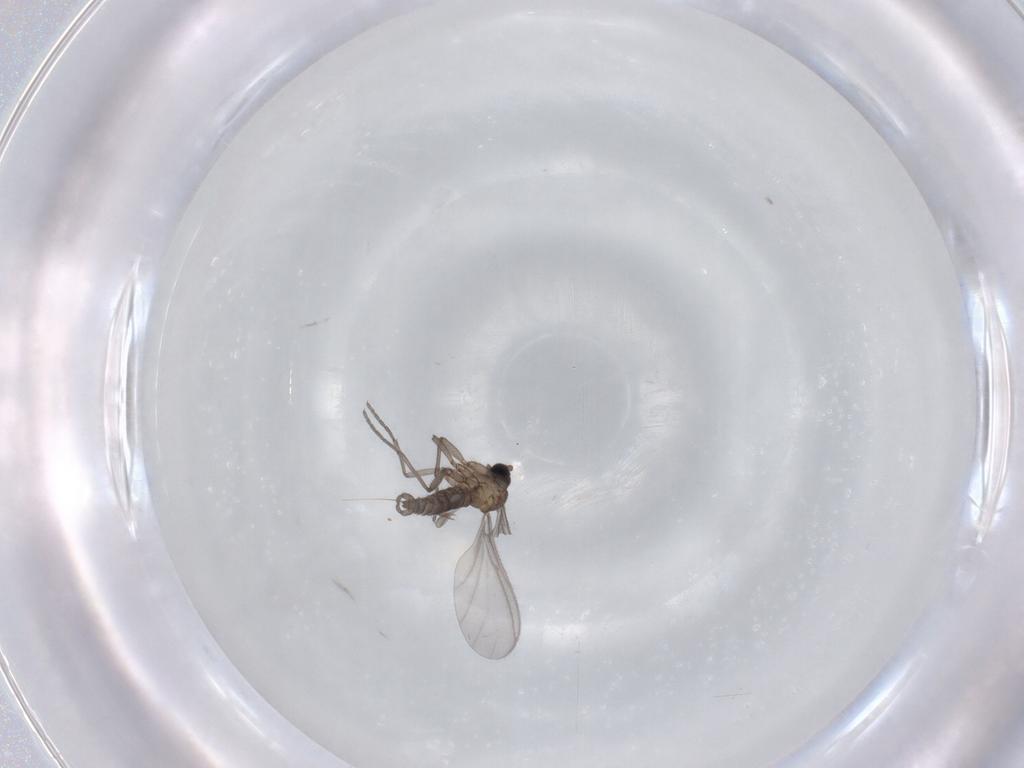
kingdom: Animalia
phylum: Arthropoda
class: Insecta
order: Diptera
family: Sciaridae
